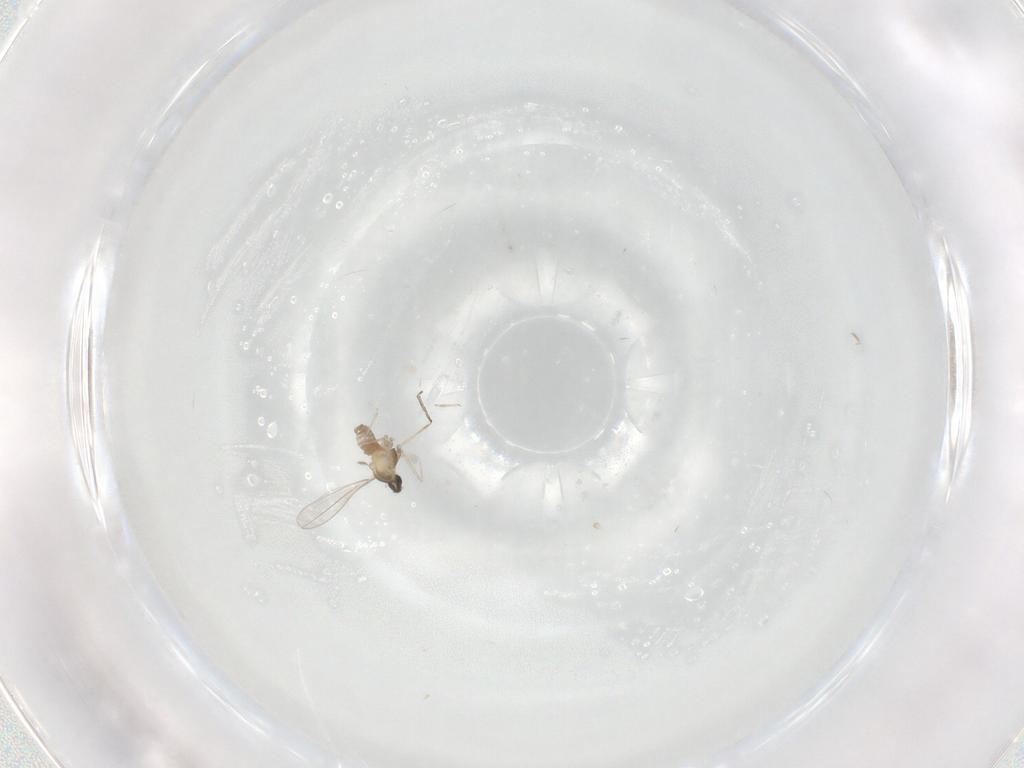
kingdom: Animalia
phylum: Arthropoda
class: Insecta
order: Diptera
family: Cecidomyiidae
